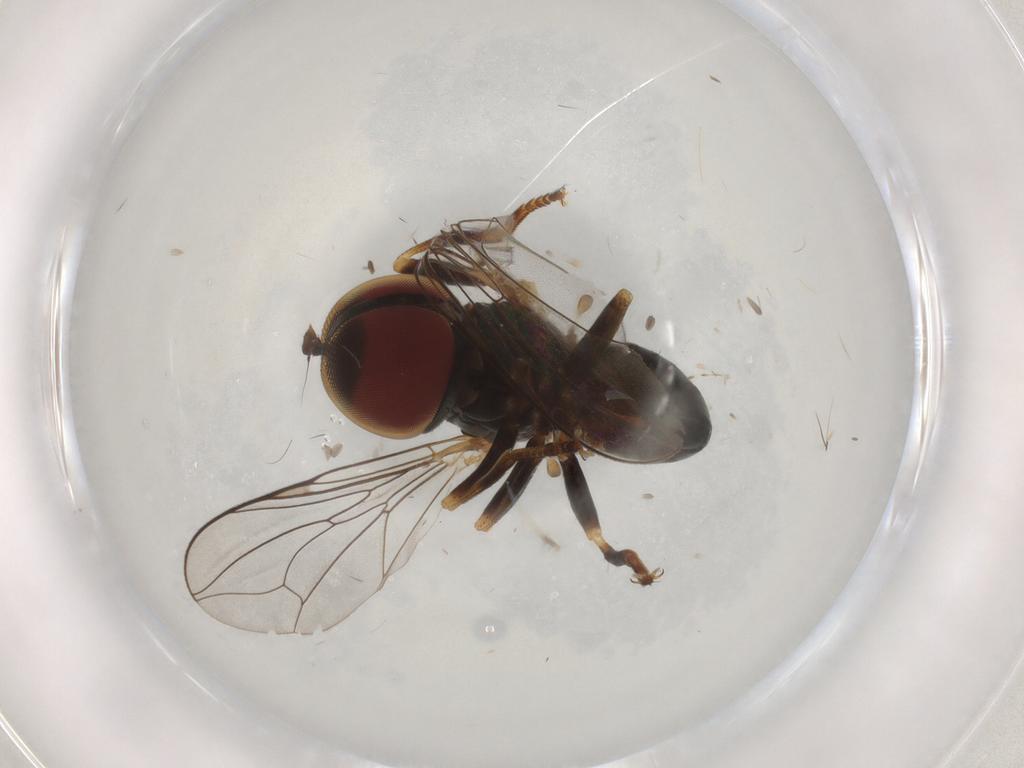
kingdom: Animalia
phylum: Arthropoda
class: Insecta
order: Diptera
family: Pipunculidae
